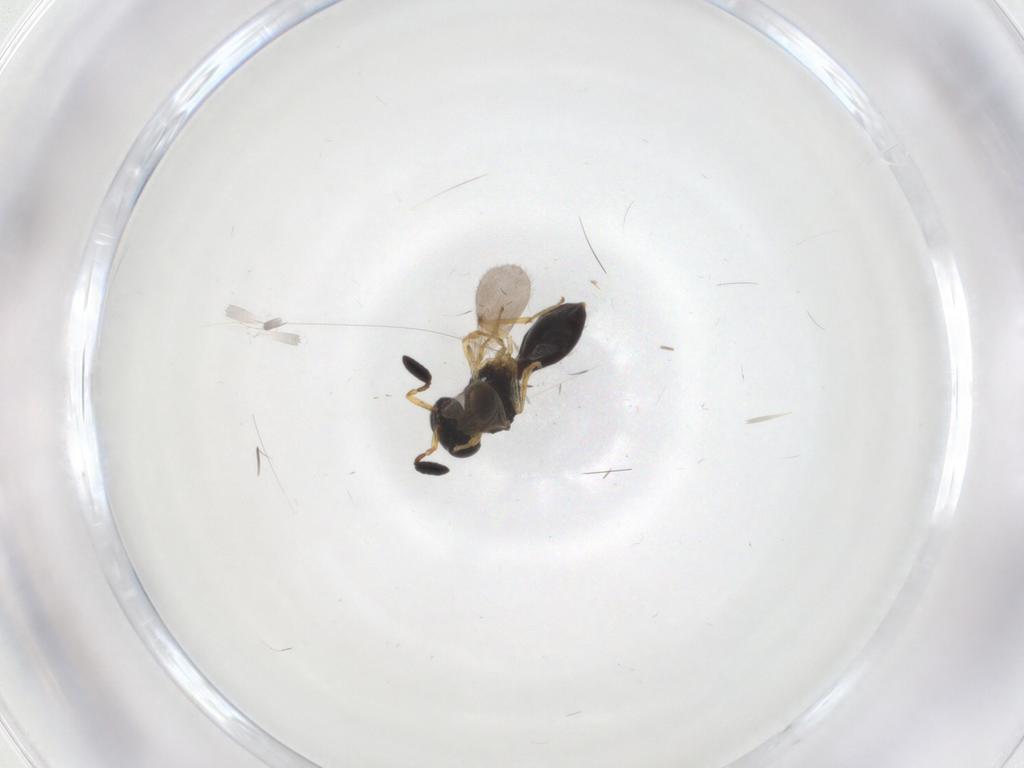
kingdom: Animalia
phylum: Arthropoda
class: Insecta
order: Hymenoptera
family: Scelionidae
